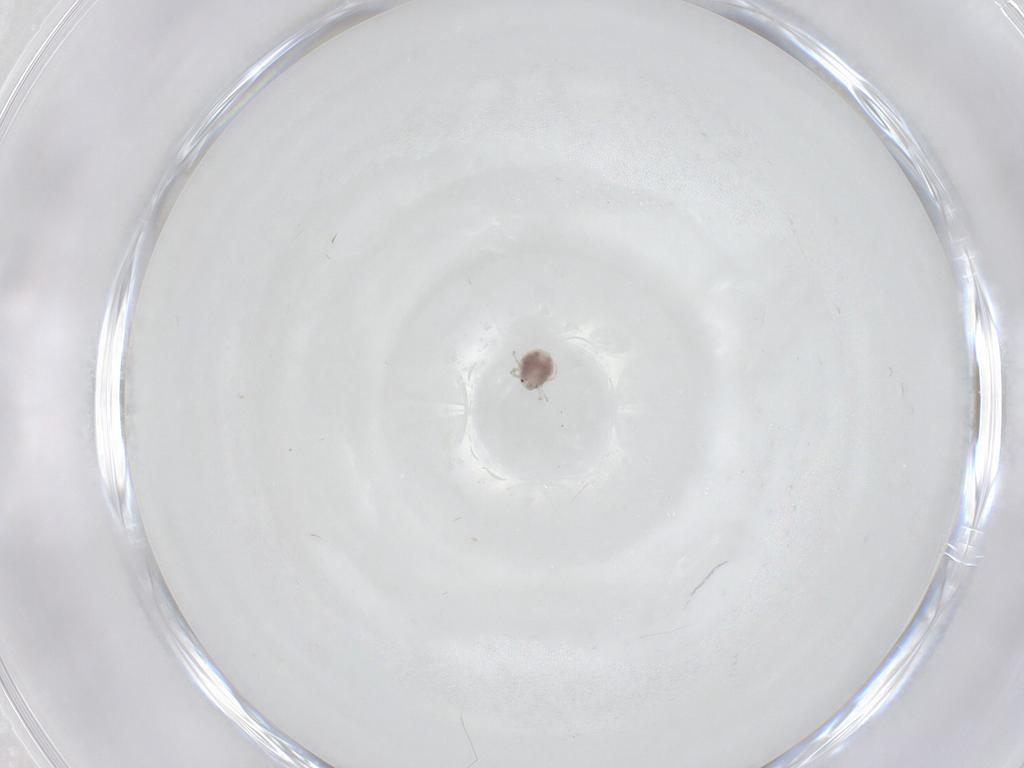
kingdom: Animalia
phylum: Arthropoda
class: Arachnida
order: Trombidiformes
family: Pionidae
